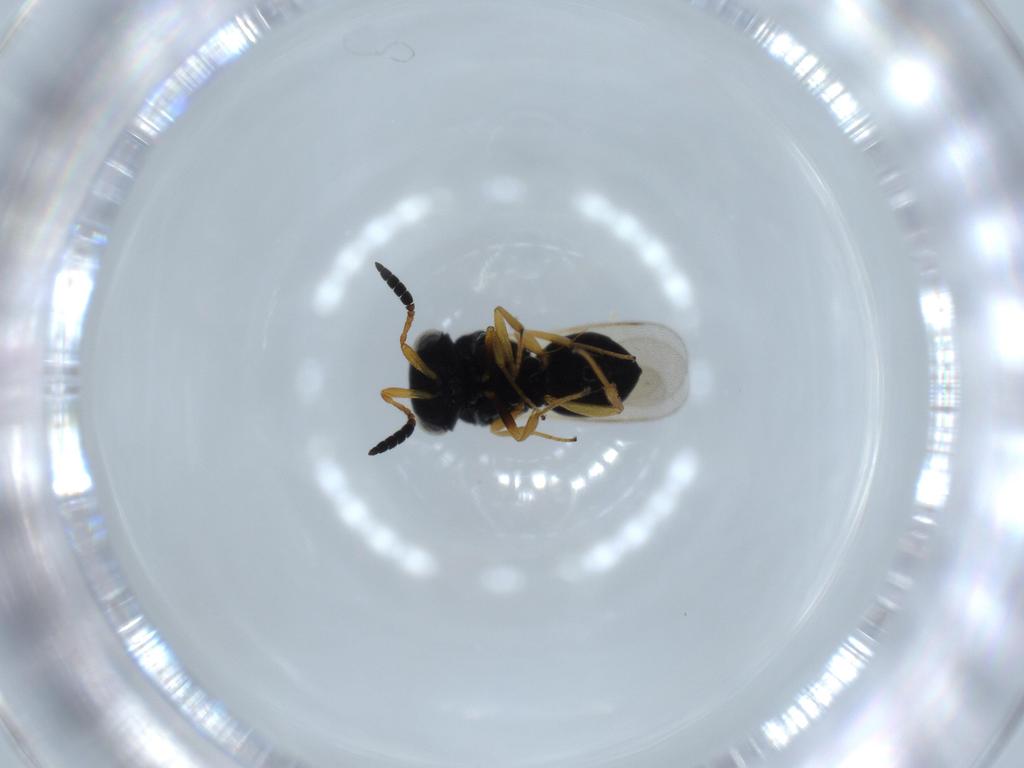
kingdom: Animalia
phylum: Arthropoda
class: Insecta
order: Hymenoptera
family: Scelionidae
